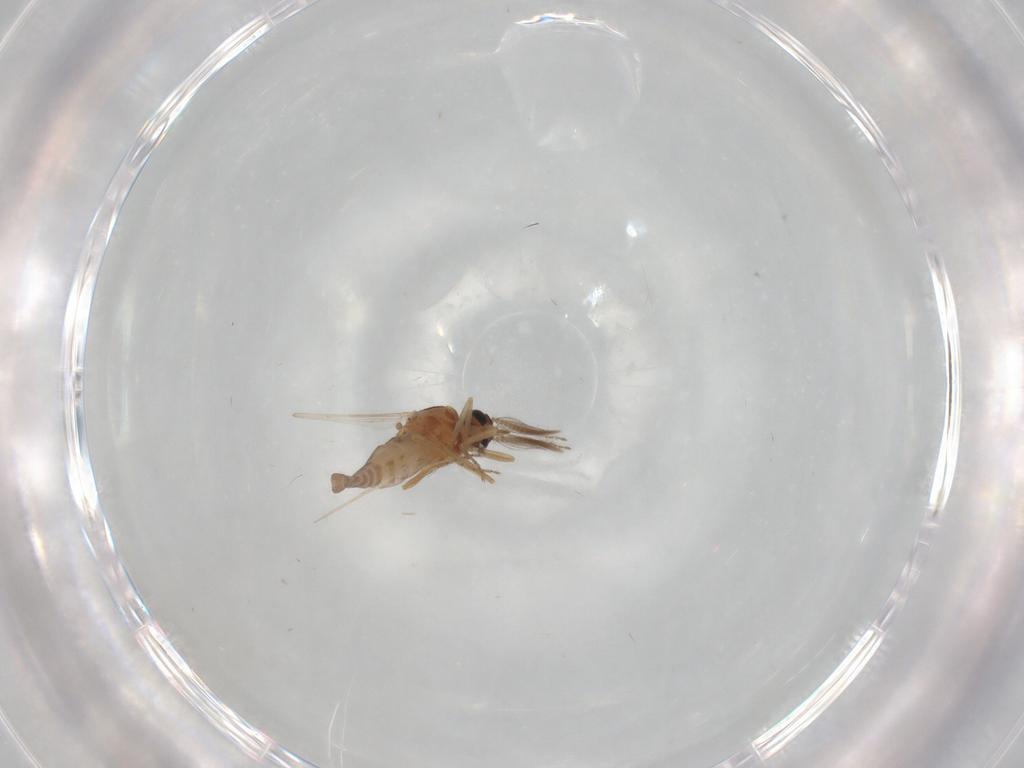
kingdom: Animalia
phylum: Arthropoda
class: Insecta
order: Diptera
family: Ceratopogonidae
